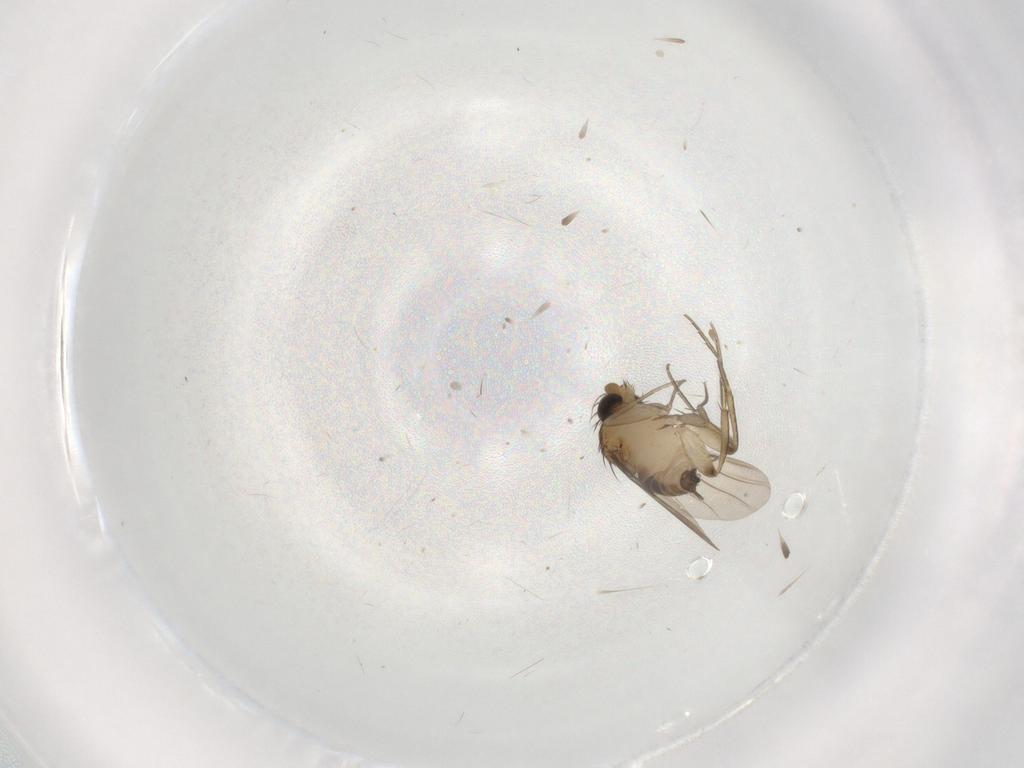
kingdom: Animalia
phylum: Arthropoda
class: Insecta
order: Diptera
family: Phoridae
